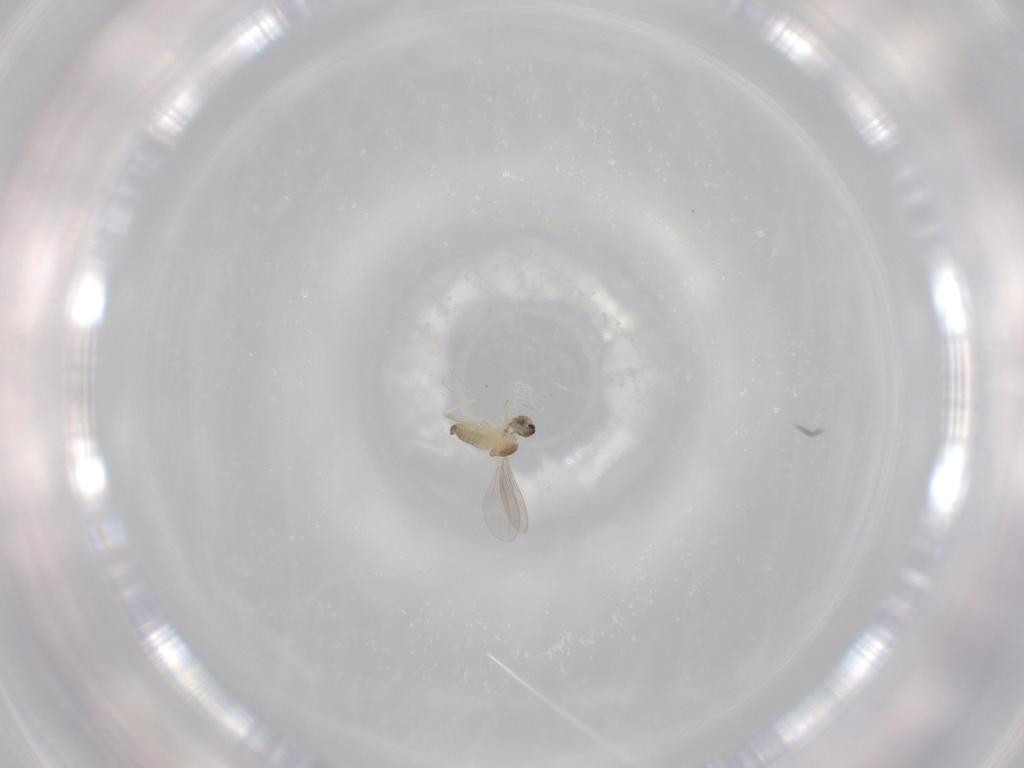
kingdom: Animalia
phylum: Arthropoda
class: Insecta
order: Diptera
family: Cecidomyiidae
